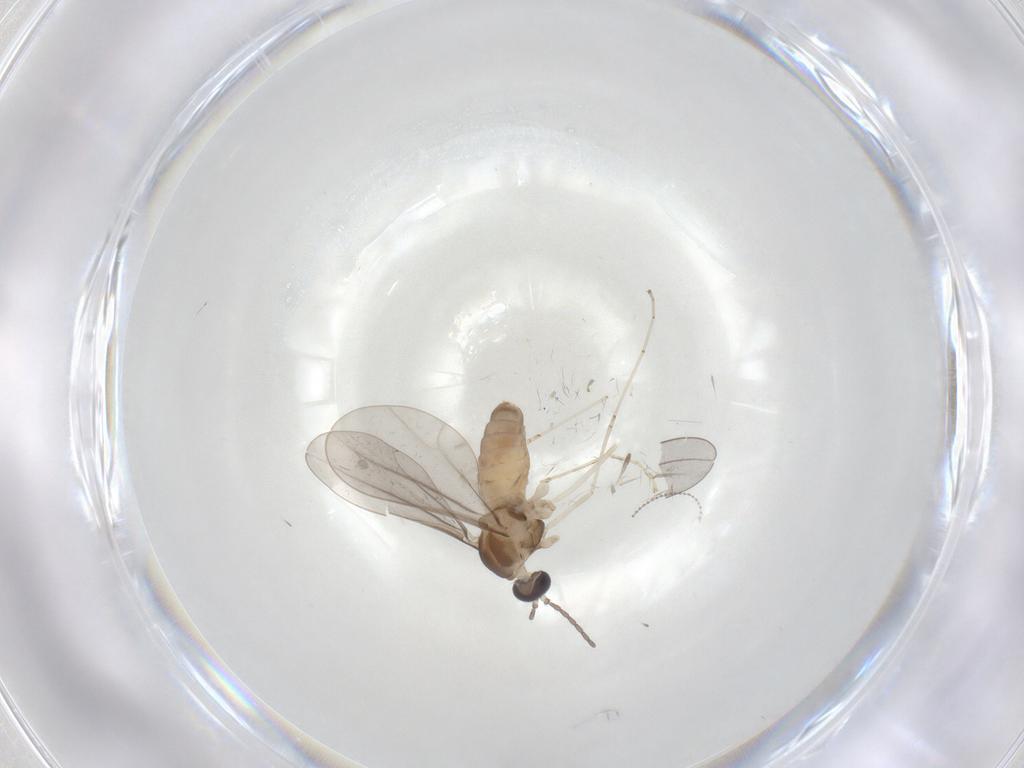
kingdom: Animalia
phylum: Arthropoda
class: Insecta
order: Diptera
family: Cecidomyiidae
